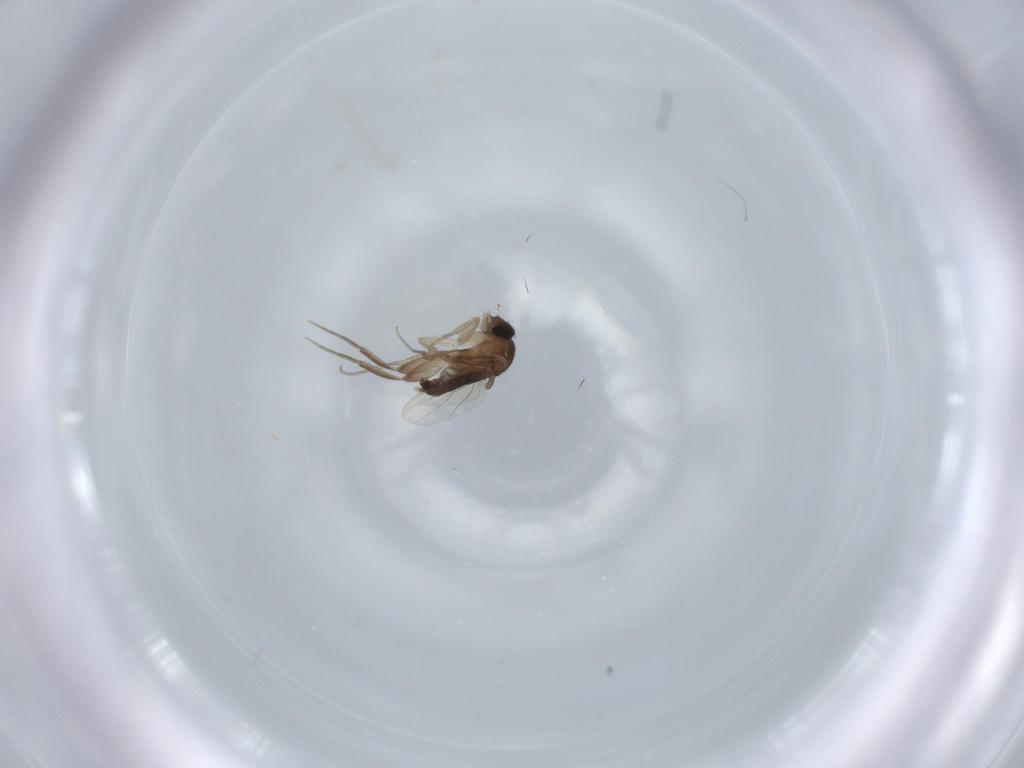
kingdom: Animalia
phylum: Arthropoda
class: Insecta
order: Diptera
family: Phoridae
